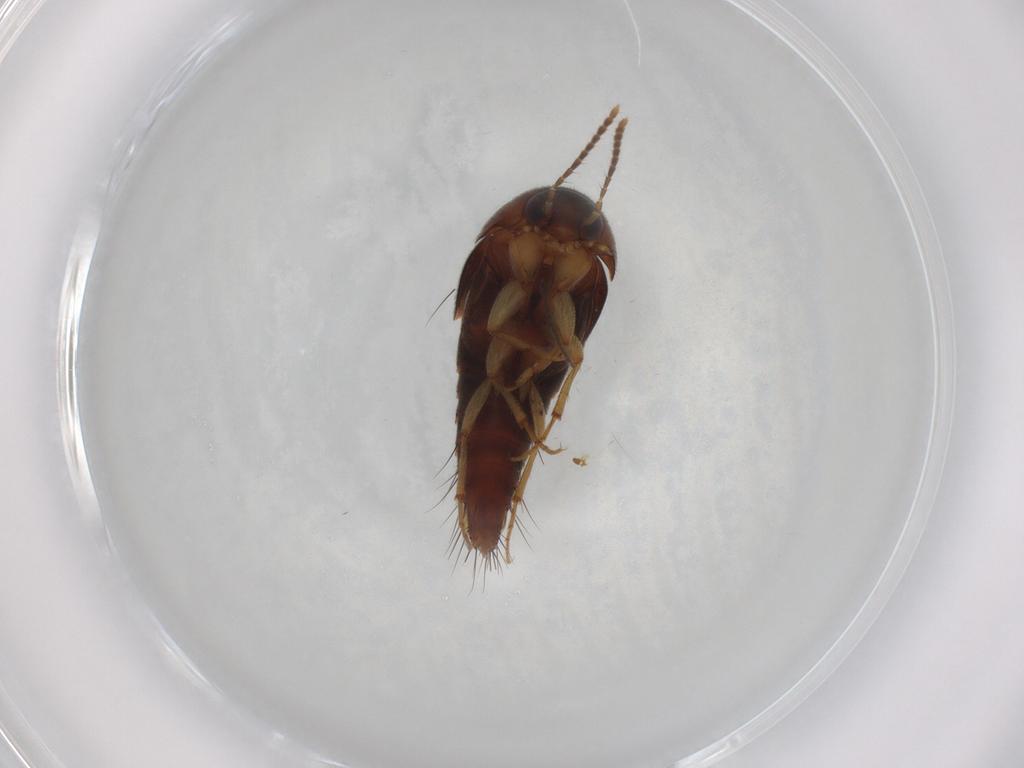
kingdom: Animalia
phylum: Arthropoda
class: Insecta
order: Coleoptera
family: Staphylinidae
